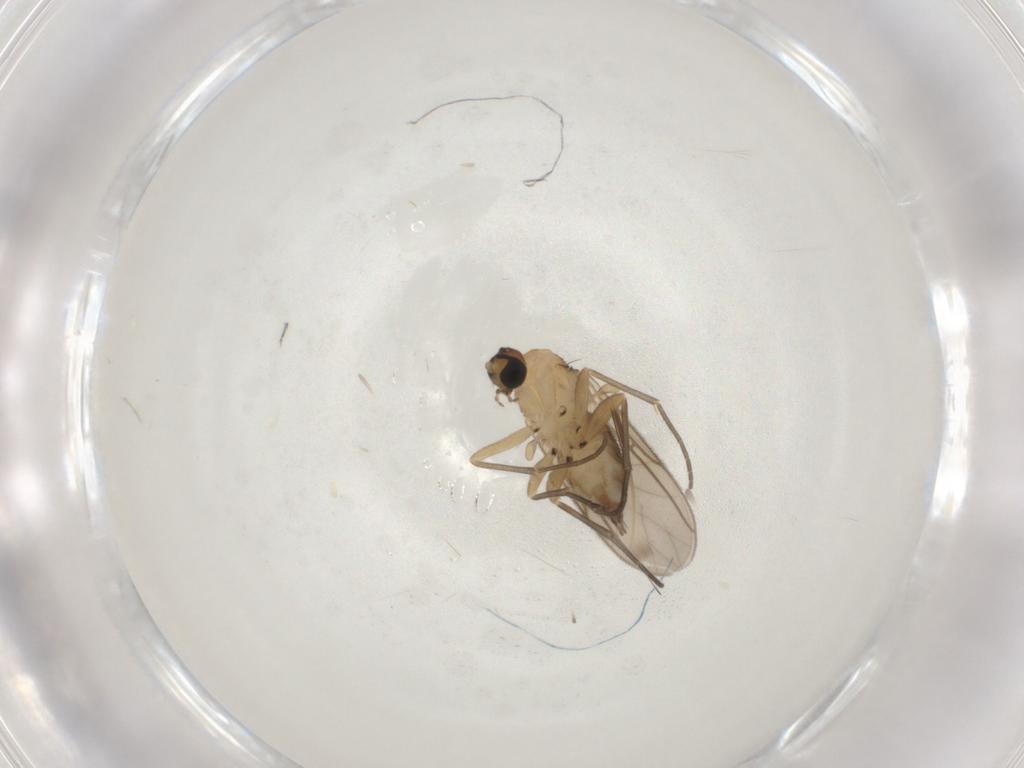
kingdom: Animalia
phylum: Arthropoda
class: Insecta
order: Diptera
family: Sciaridae
